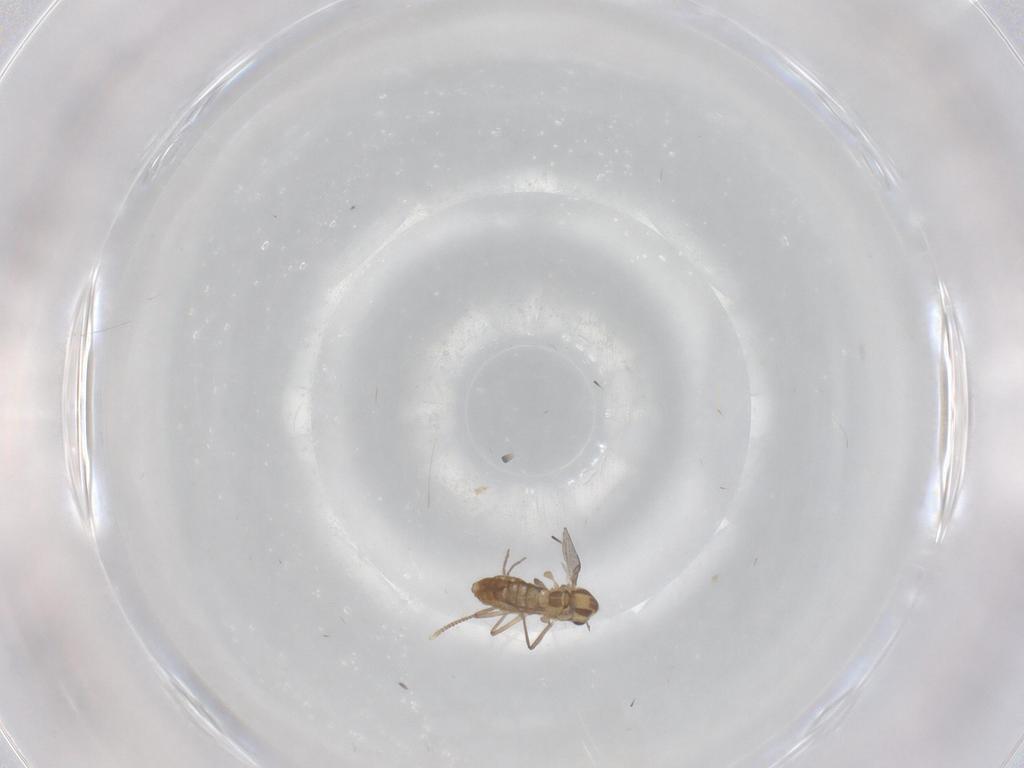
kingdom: Animalia
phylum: Arthropoda
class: Insecta
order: Diptera
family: Chironomidae
